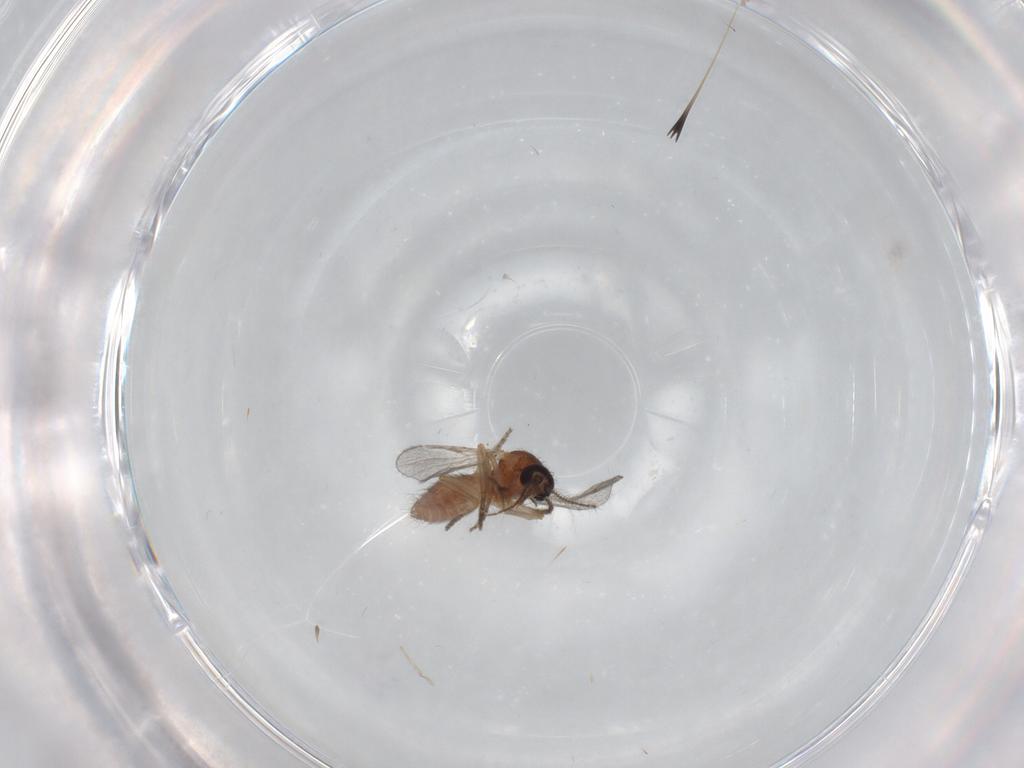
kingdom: Animalia
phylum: Arthropoda
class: Insecta
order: Diptera
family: Ceratopogonidae
